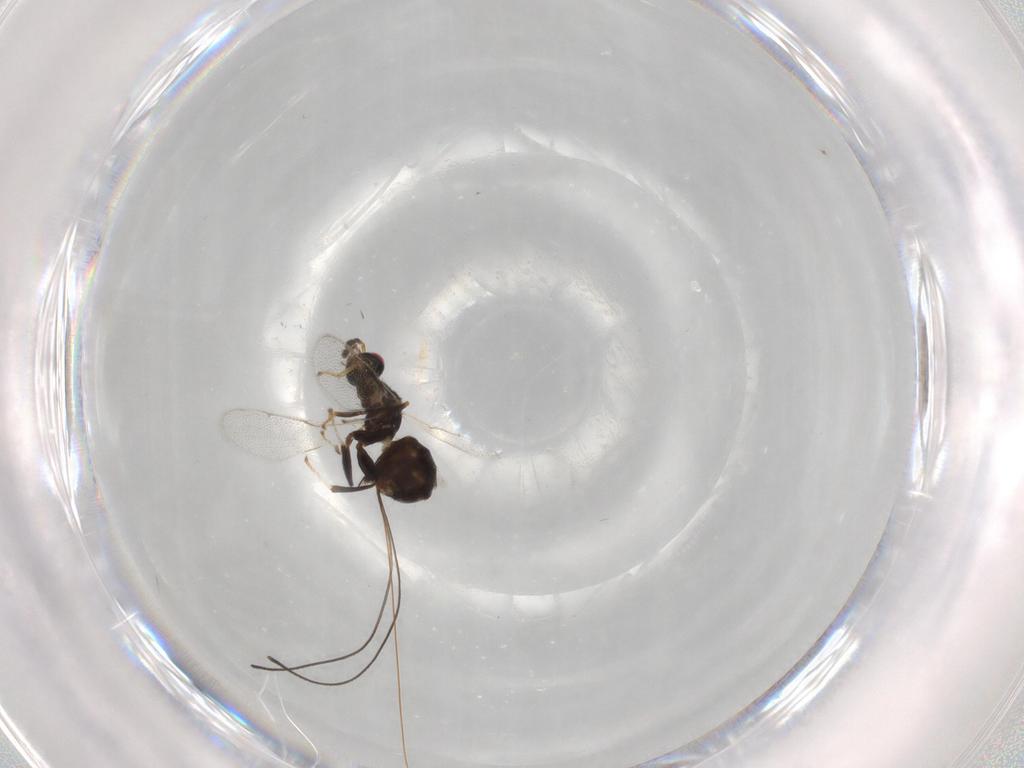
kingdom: Animalia
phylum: Arthropoda
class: Insecta
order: Hymenoptera
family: Torymidae
